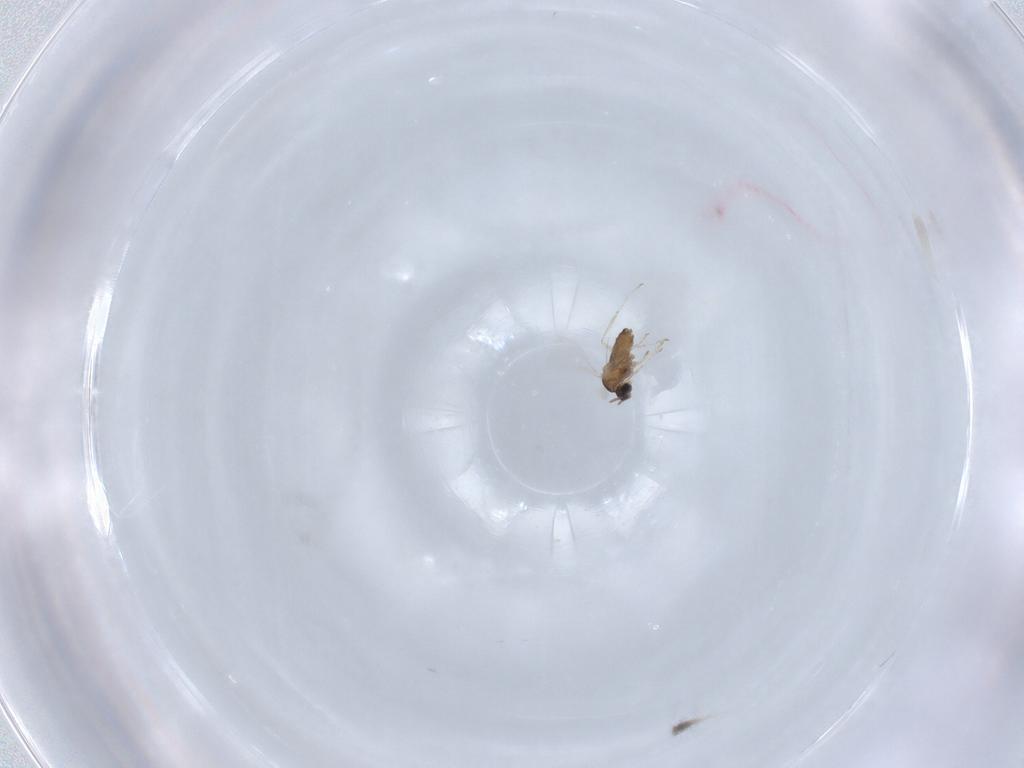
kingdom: Animalia
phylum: Arthropoda
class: Insecta
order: Diptera
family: Cecidomyiidae
